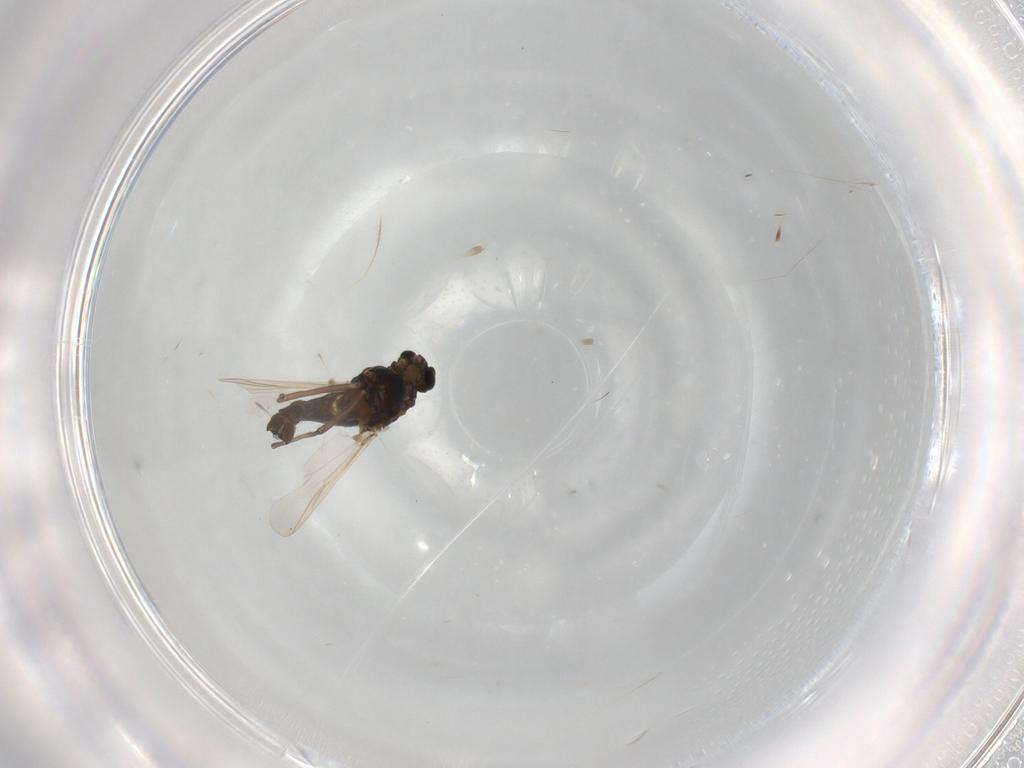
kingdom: Animalia
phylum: Arthropoda
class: Insecta
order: Diptera
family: Chironomidae
